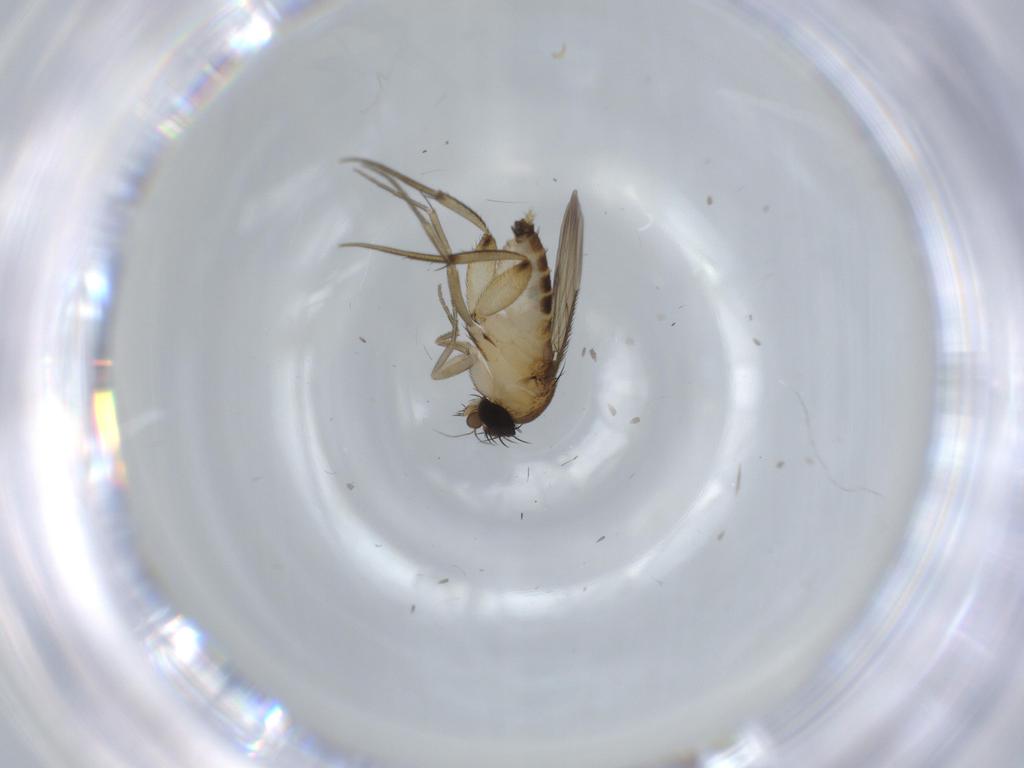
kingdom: Animalia
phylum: Arthropoda
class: Insecta
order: Diptera
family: Phoridae
